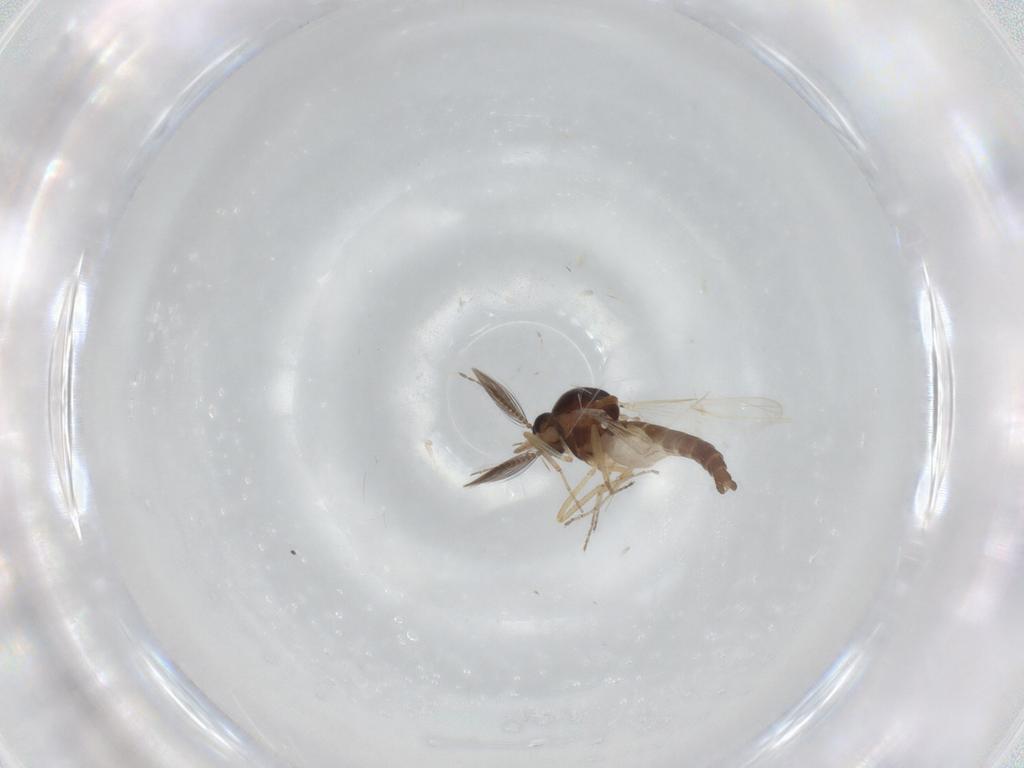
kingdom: Animalia
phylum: Arthropoda
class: Insecta
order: Diptera
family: Ceratopogonidae
